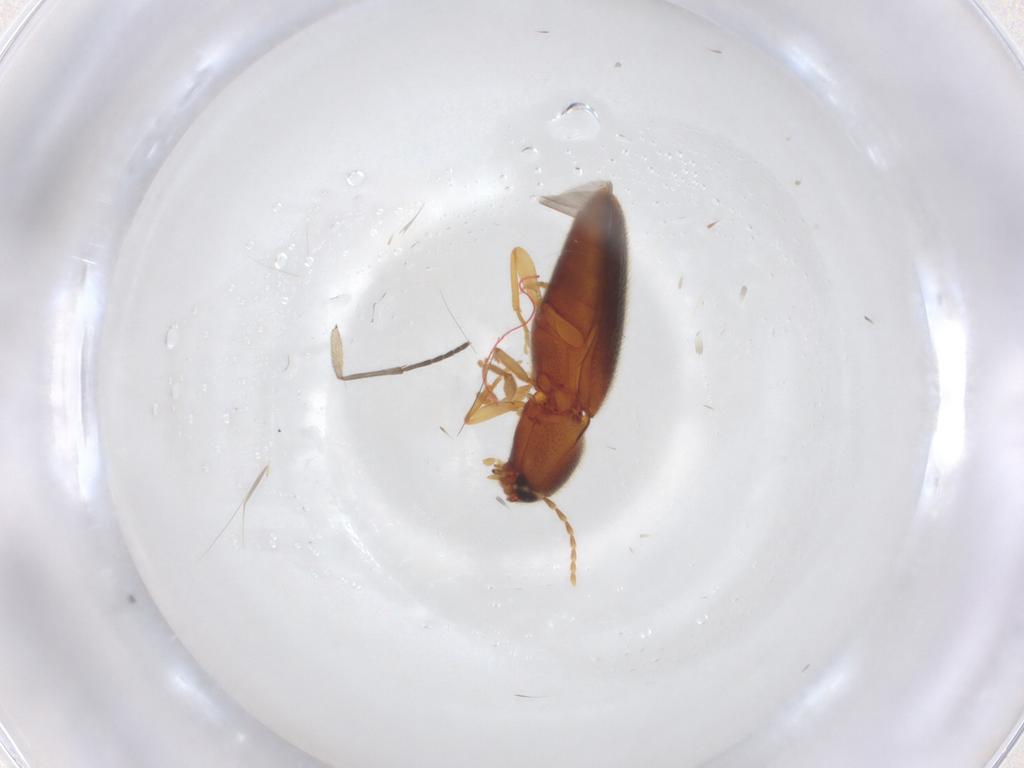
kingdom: Animalia
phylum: Arthropoda
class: Insecta
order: Coleoptera
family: Elateridae
